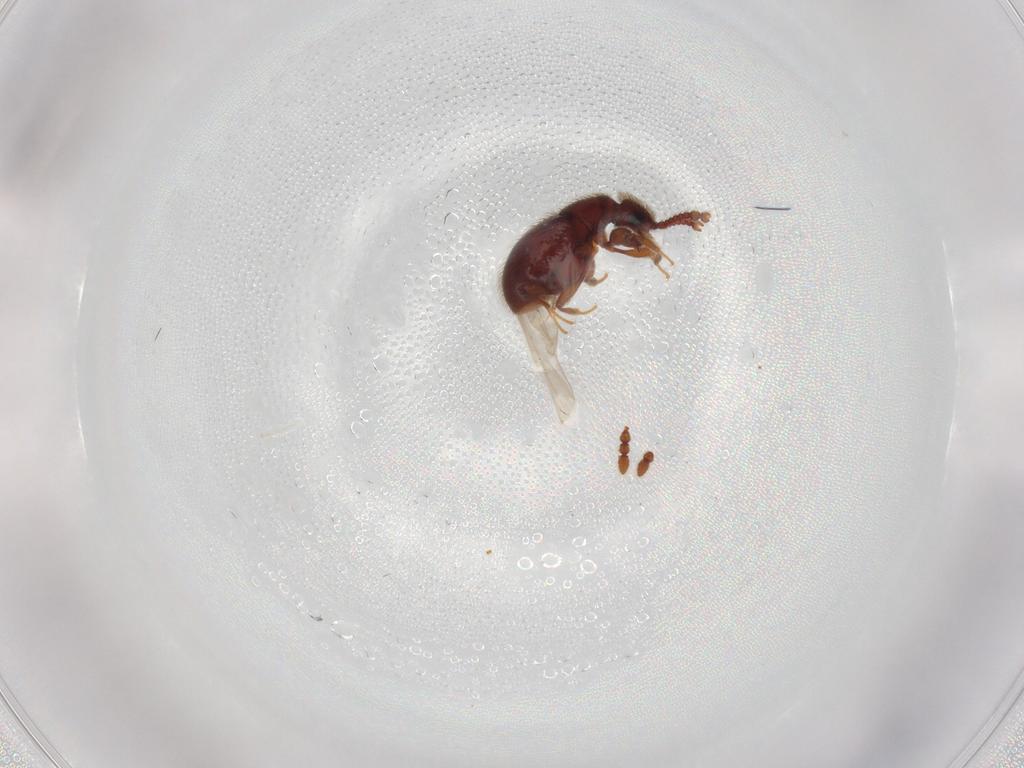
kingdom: Animalia
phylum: Arthropoda
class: Insecta
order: Coleoptera
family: Staphylinidae
